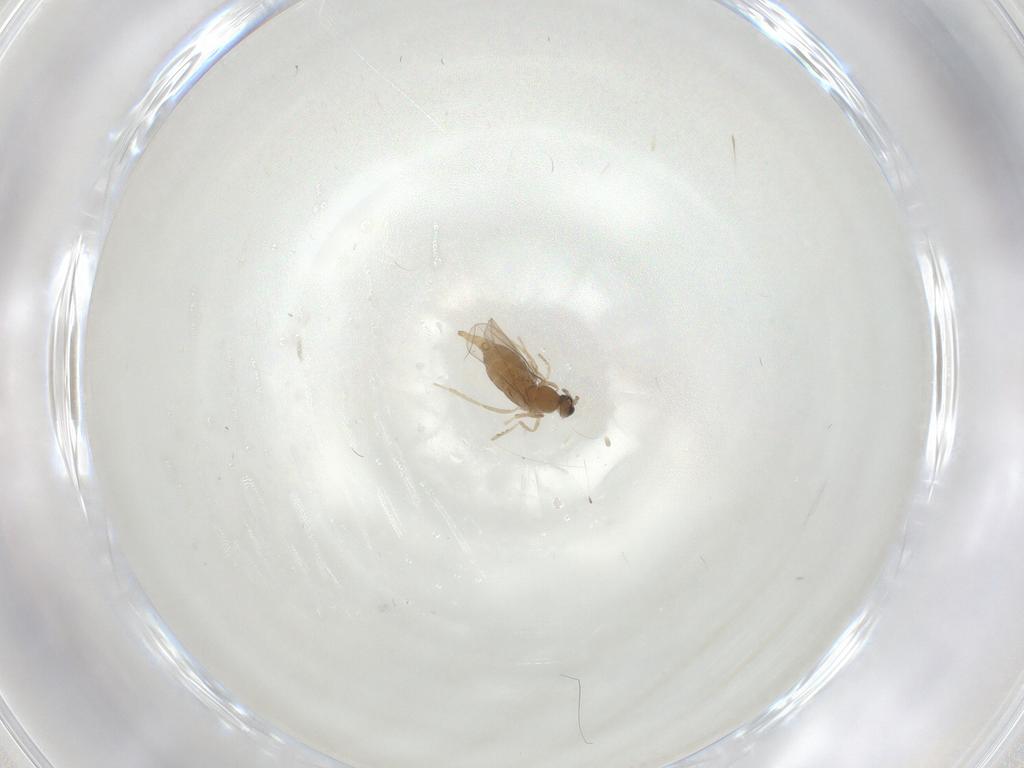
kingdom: Animalia
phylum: Arthropoda
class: Insecta
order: Diptera
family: Cecidomyiidae
